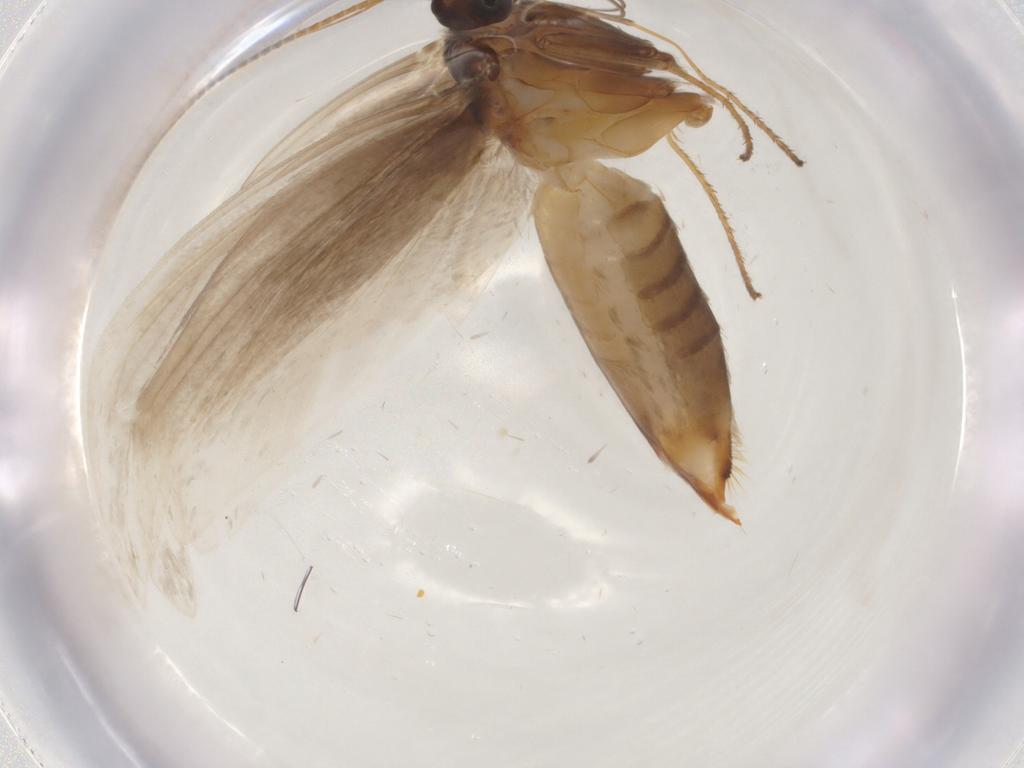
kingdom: Animalia
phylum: Arthropoda
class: Insecta
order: Lepidoptera
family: Adelidae
